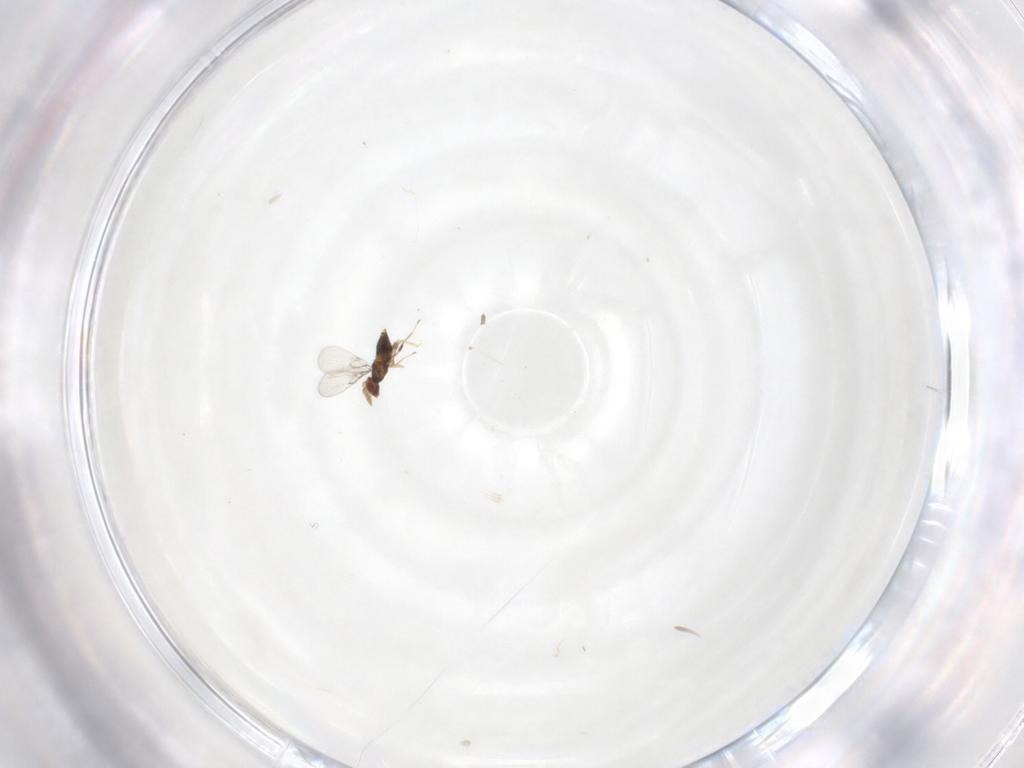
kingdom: Animalia
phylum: Arthropoda
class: Insecta
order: Hymenoptera
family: Trichogrammatidae
